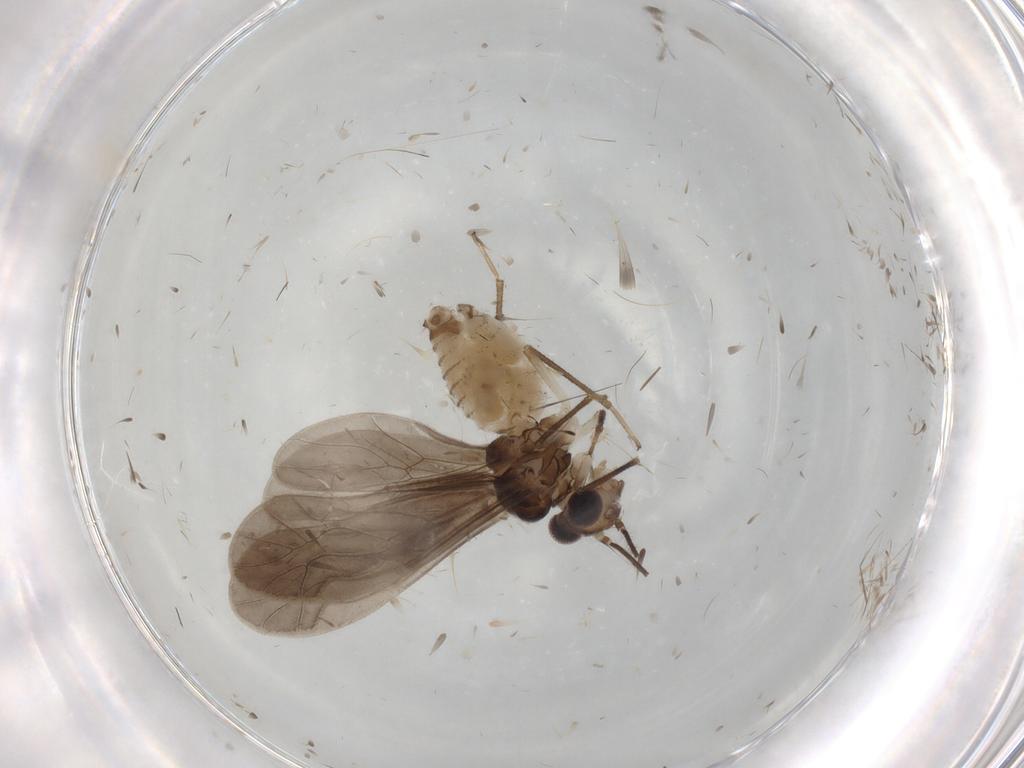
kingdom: Animalia
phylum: Arthropoda
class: Insecta
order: Psocodea
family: Caeciliusidae
